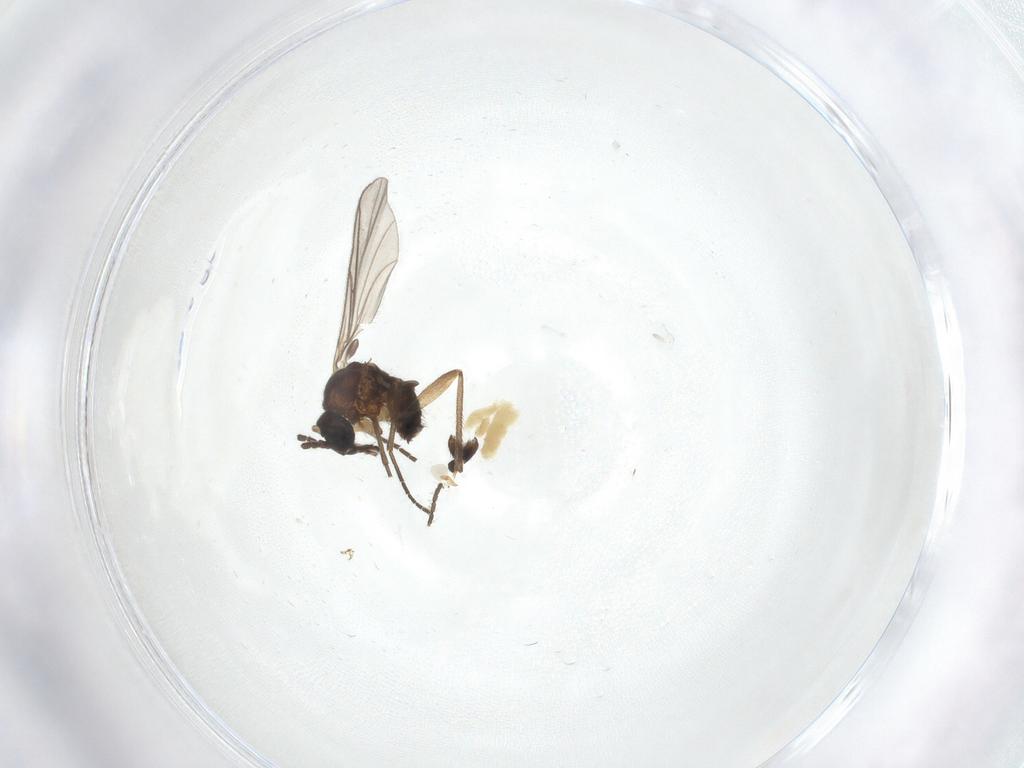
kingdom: Animalia
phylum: Arthropoda
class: Insecta
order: Diptera
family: Sciaridae
